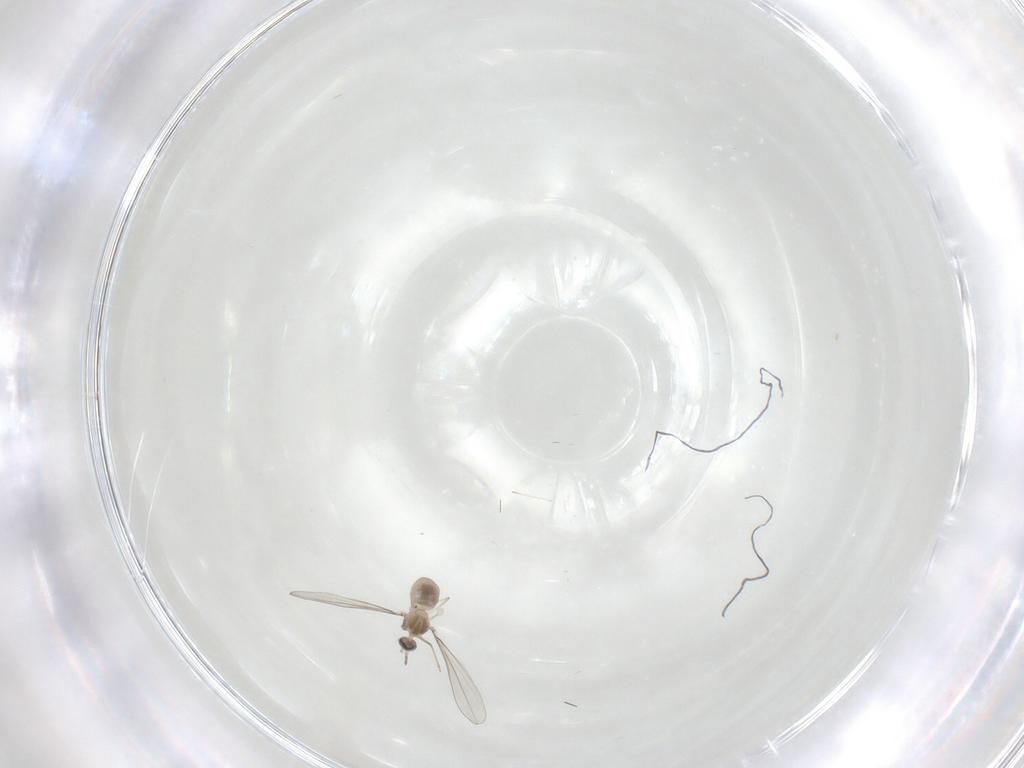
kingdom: Animalia
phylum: Arthropoda
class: Insecta
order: Diptera
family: Cecidomyiidae
